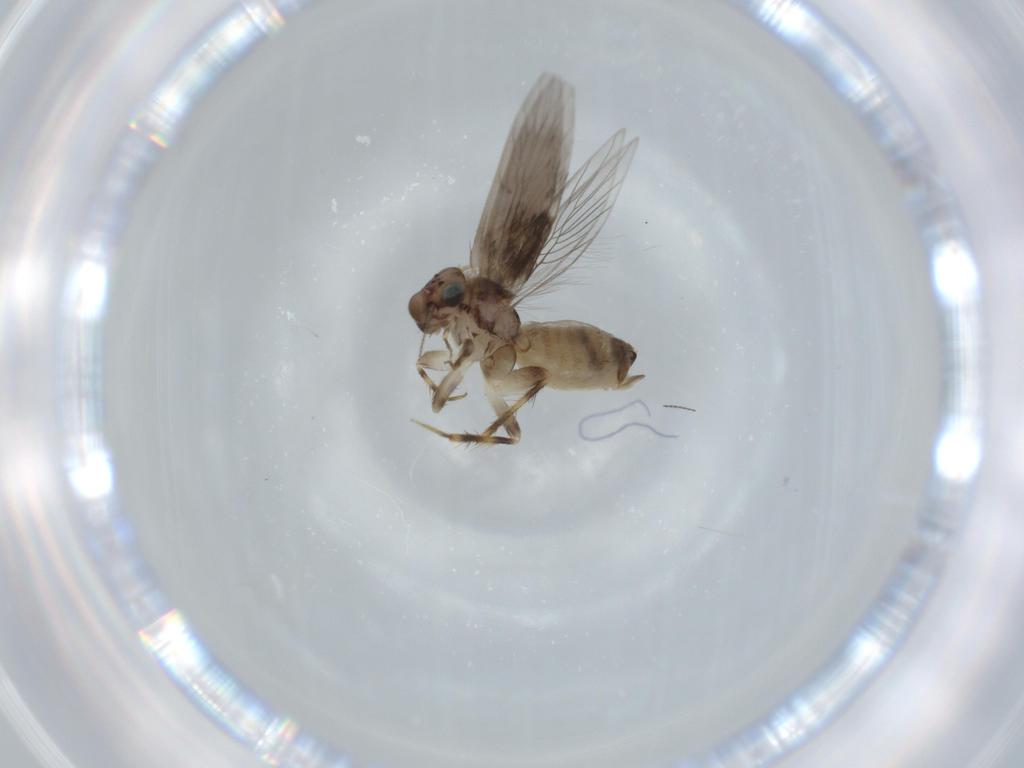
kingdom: Animalia
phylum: Arthropoda
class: Insecta
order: Psocodea
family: Lepidopsocidae
